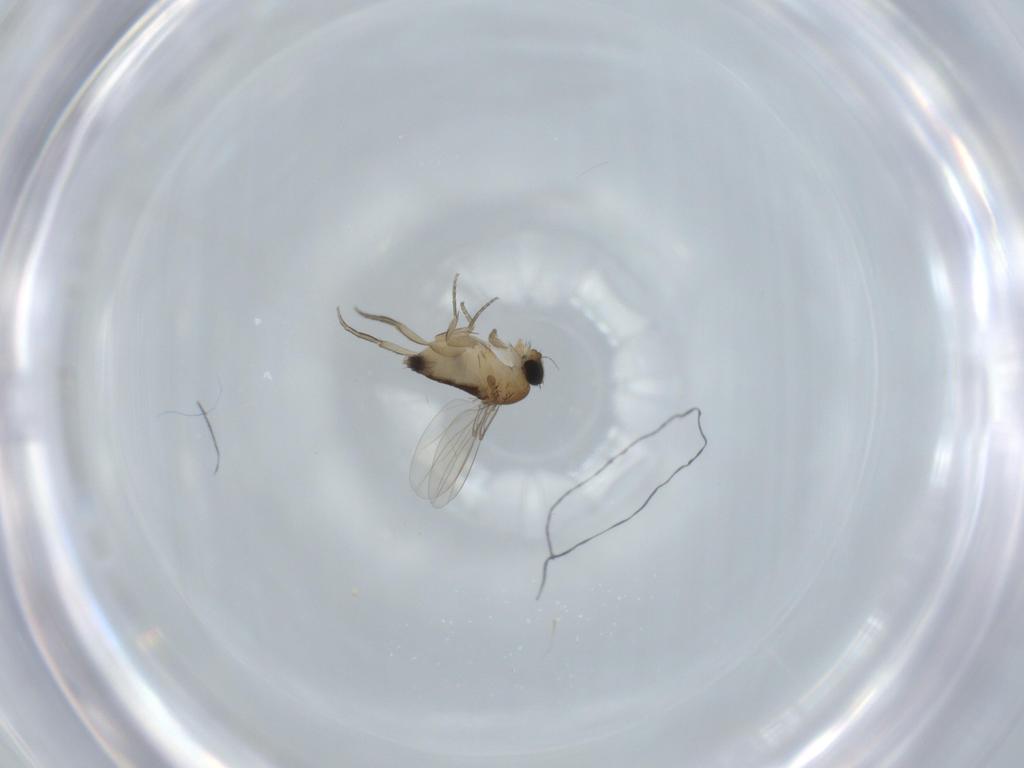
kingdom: Animalia
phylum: Arthropoda
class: Insecta
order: Diptera
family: Phoridae
